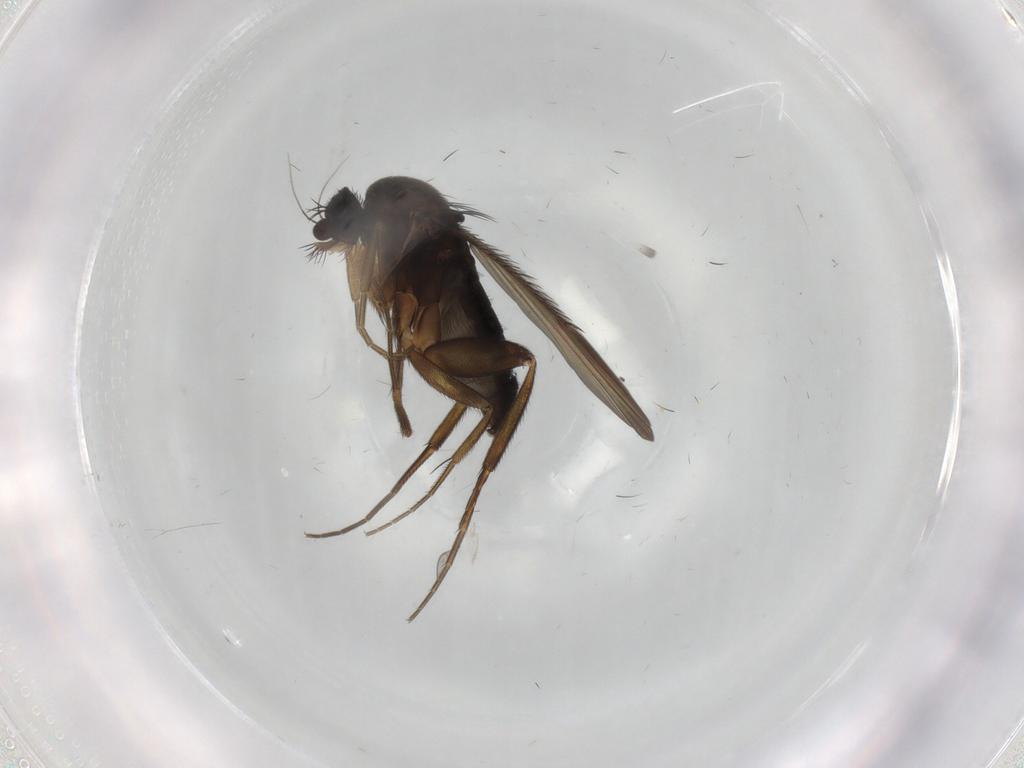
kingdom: Animalia
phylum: Arthropoda
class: Insecta
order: Diptera
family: Phoridae
